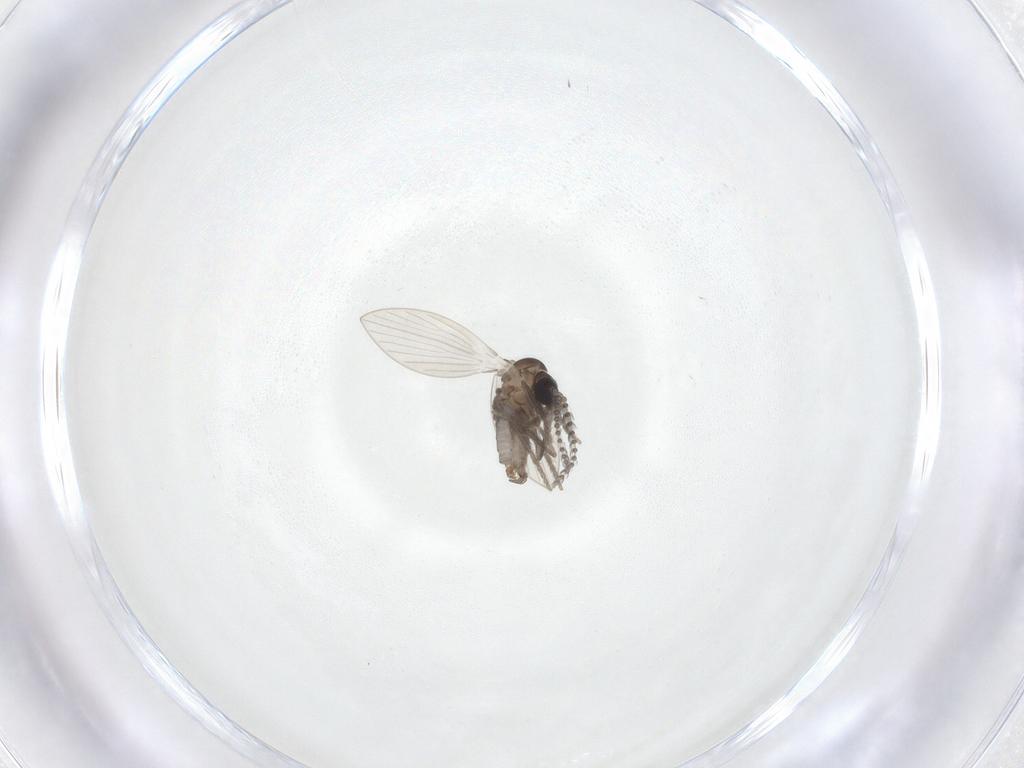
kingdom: Animalia
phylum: Arthropoda
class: Insecta
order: Diptera
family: Psychodidae
